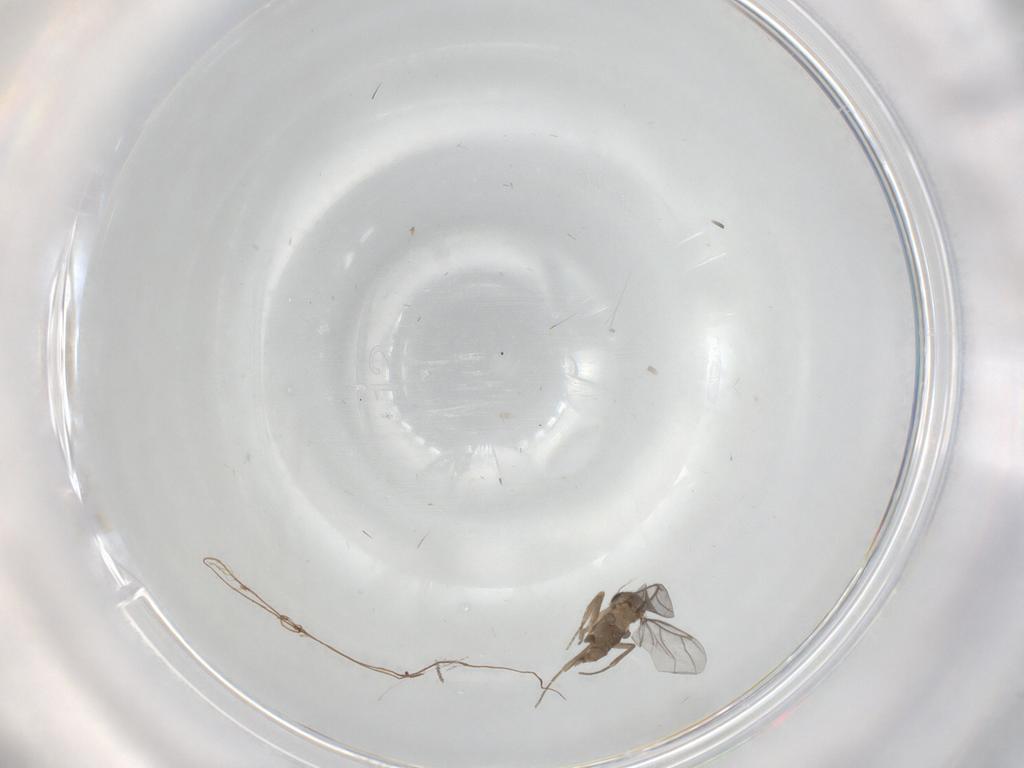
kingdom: Animalia
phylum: Arthropoda
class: Insecta
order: Diptera
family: Cecidomyiidae
